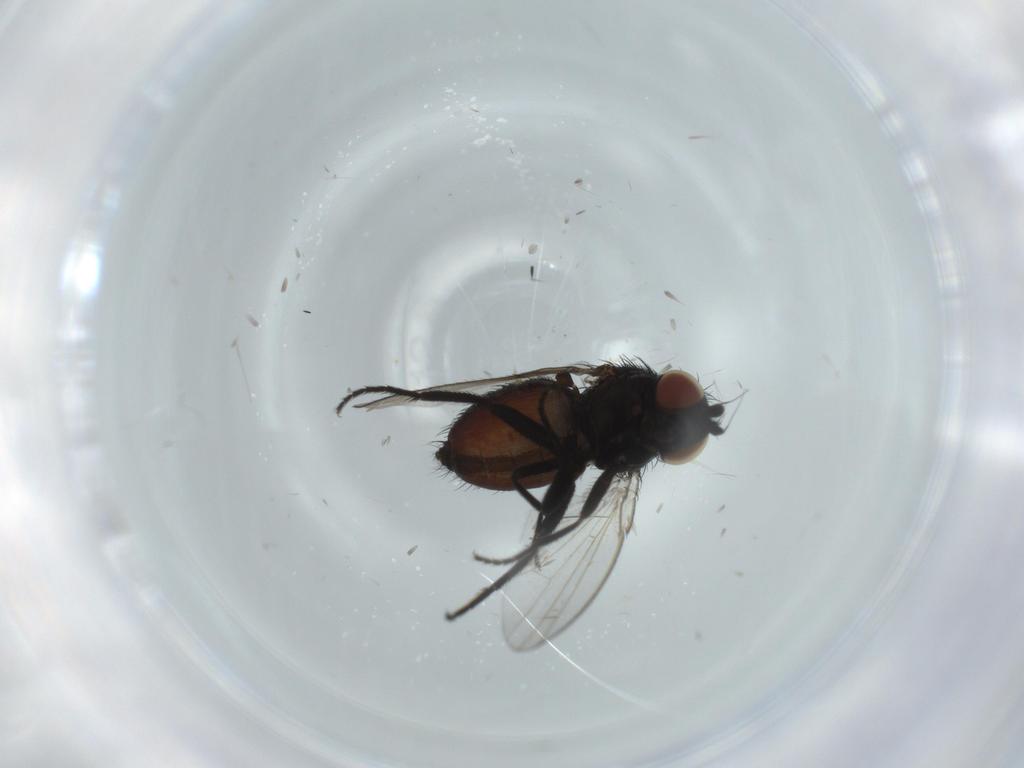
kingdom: Animalia
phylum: Arthropoda
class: Insecta
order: Diptera
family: Milichiidae
